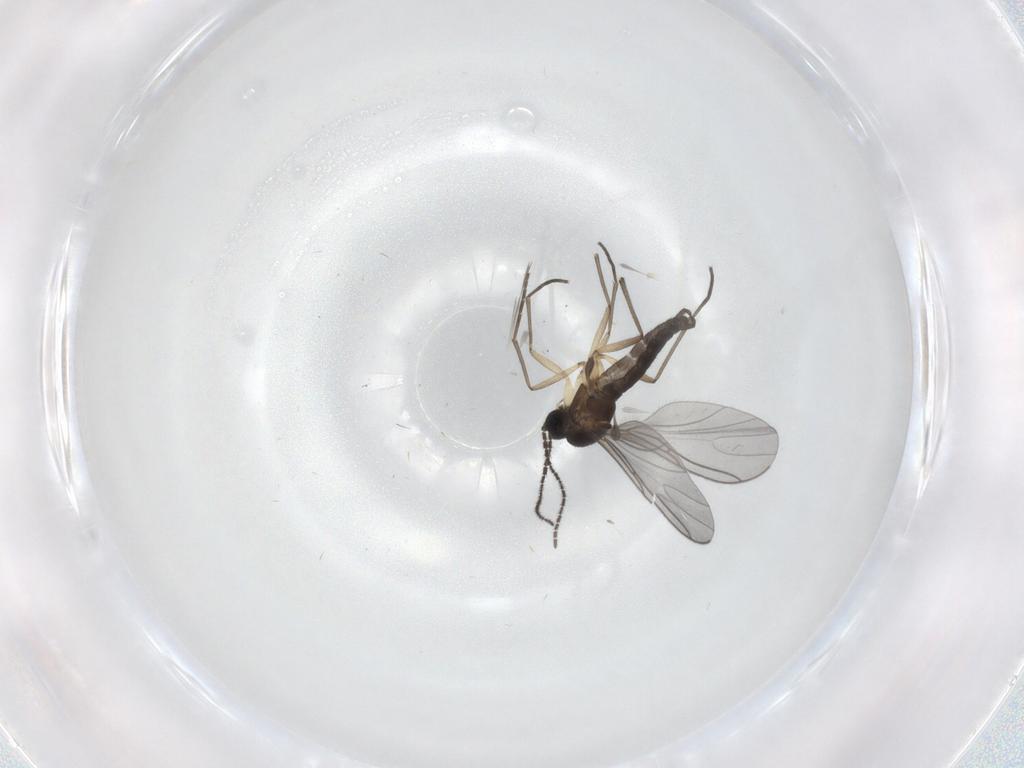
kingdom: Animalia
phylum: Arthropoda
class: Insecta
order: Diptera
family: Sciaridae
